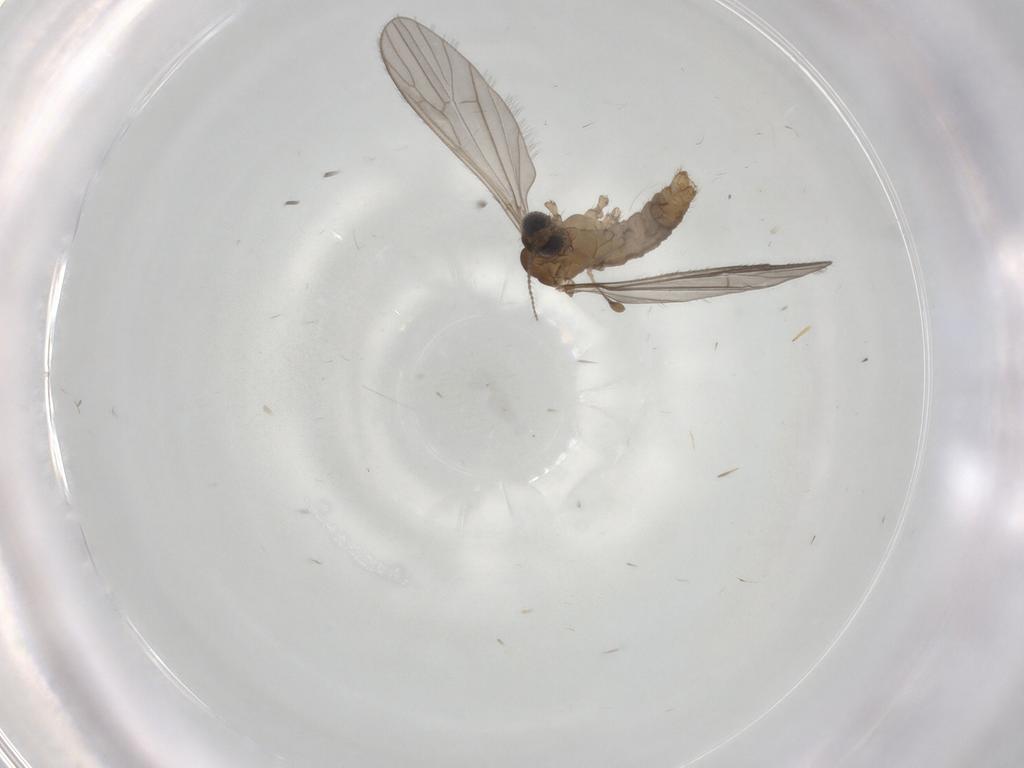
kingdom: Animalia
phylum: Arthropoda
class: Insecta
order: Diptera
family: Limoniidae
